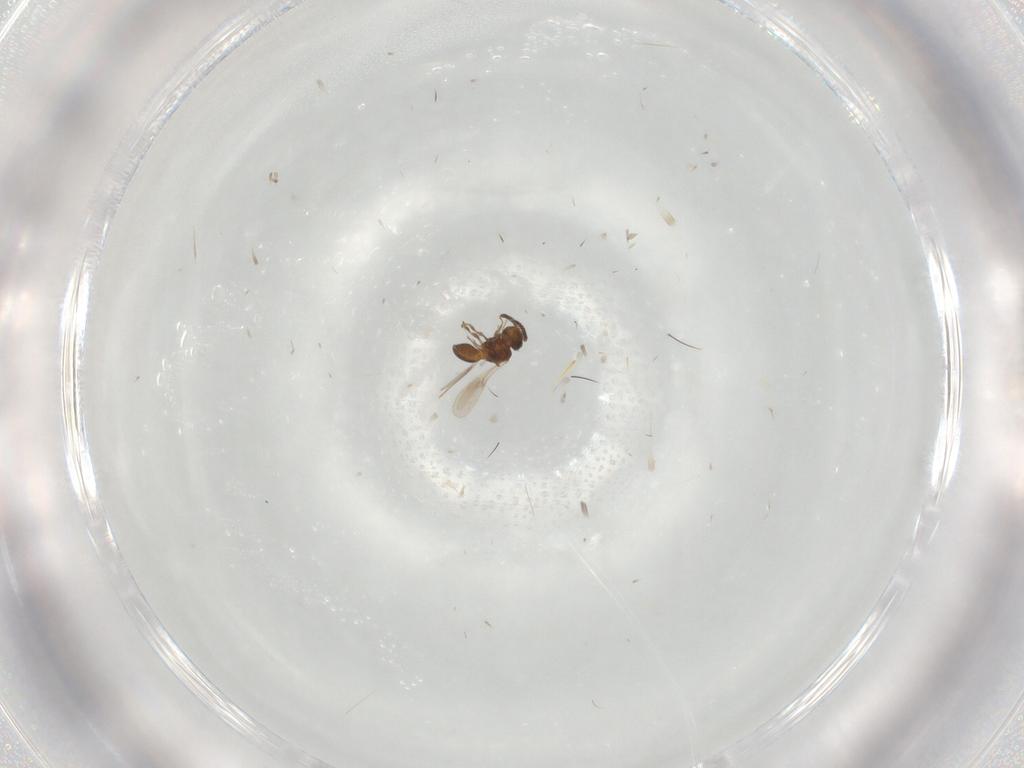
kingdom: Animalia
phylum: Arthropoda
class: Insecta
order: Hymenoptera
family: Scelionidae
